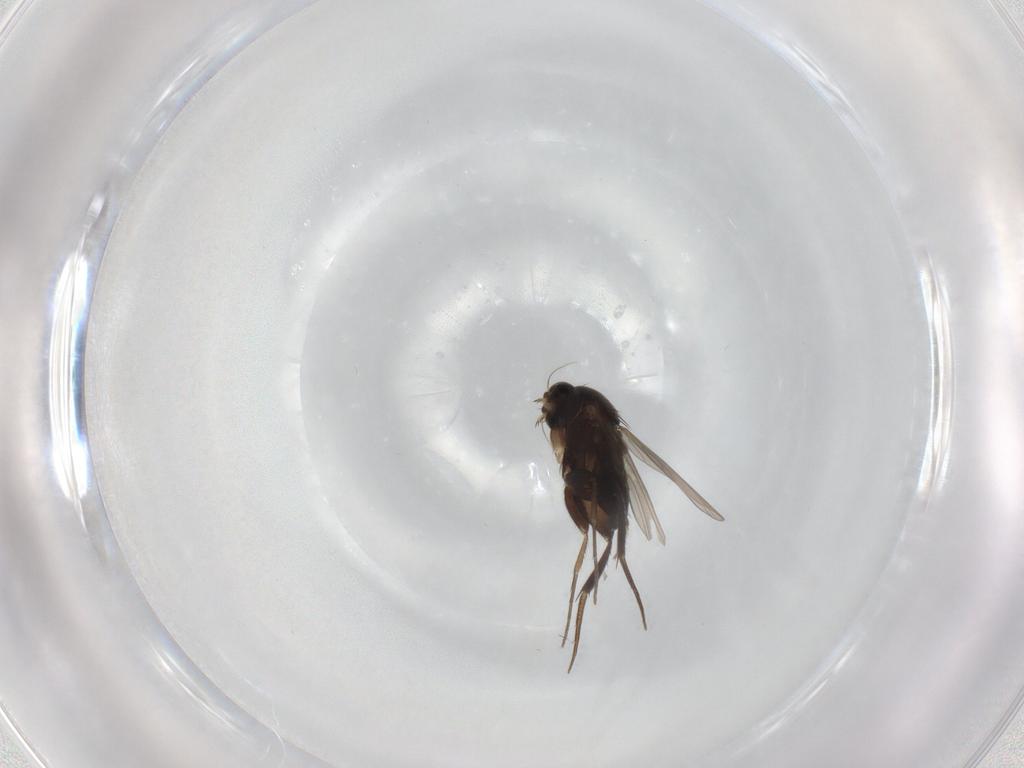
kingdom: Animalia
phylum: Arthropoda
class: Insecta
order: Diptera
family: Phoridae
